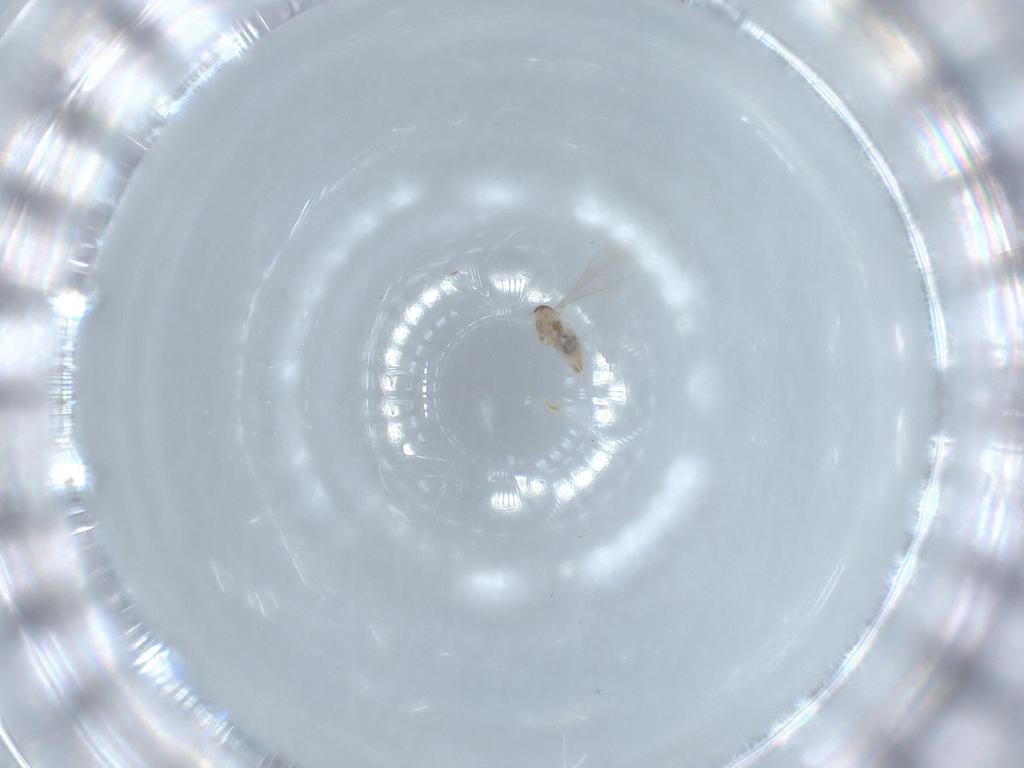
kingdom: Animalia
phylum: Arthropoda
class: Insecta
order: Diptera
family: Cecidomyiidae
